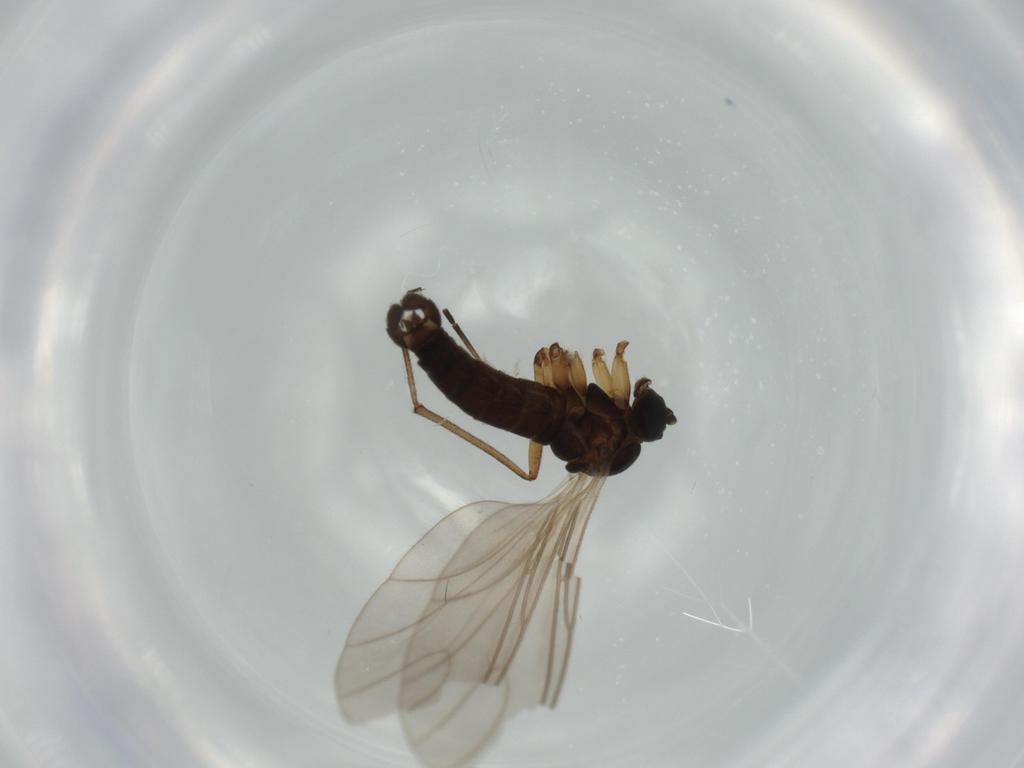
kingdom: Animalia
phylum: Arthropoda
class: Insecta
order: Diptera
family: Sciaridae
